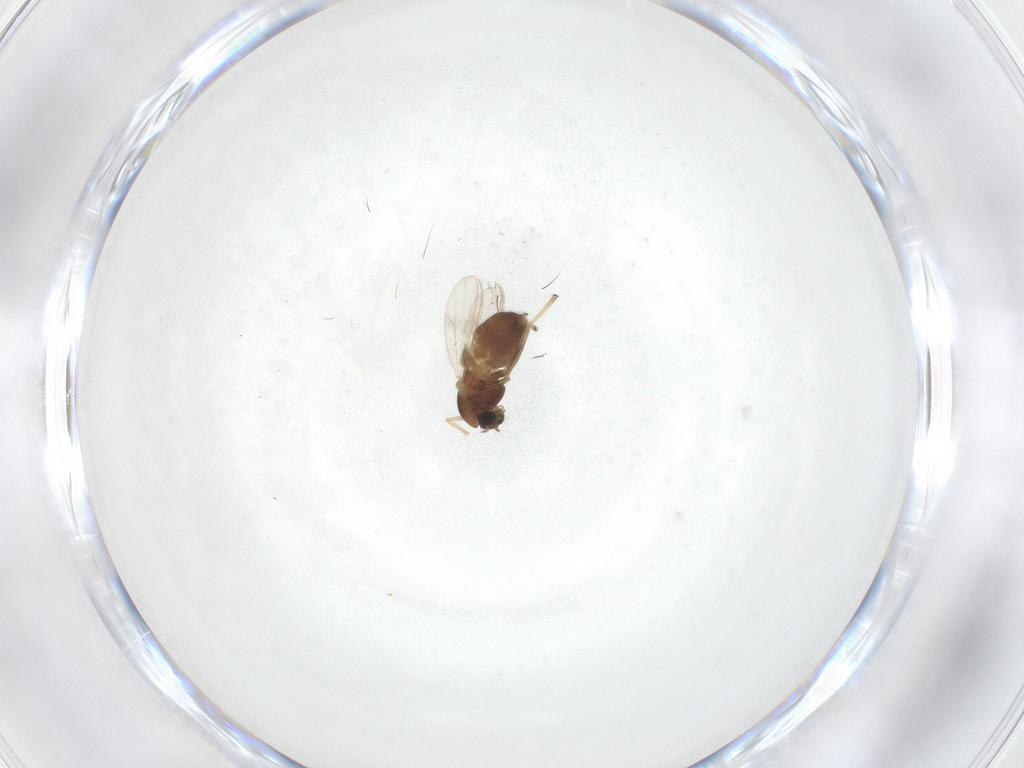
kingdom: Animalia
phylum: Arthropoda
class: Insecta
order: Diptera
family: Chironomidae
